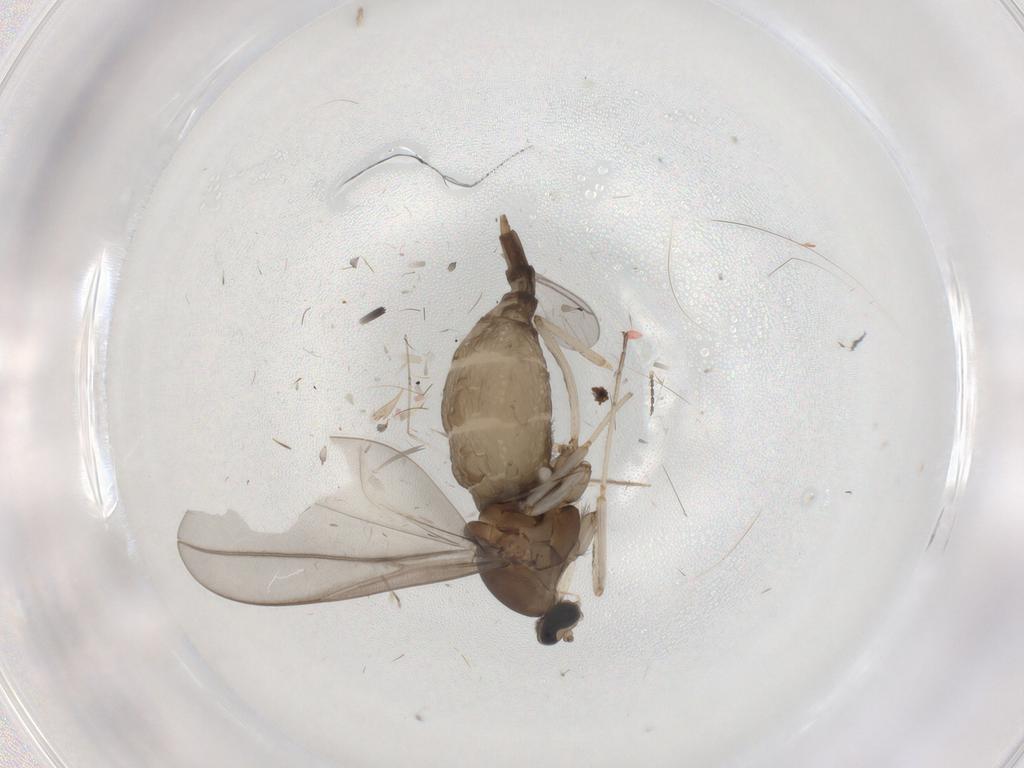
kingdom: Animalia
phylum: Arthropoda
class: Insecta
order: Diptera
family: Cecidomyiidae
